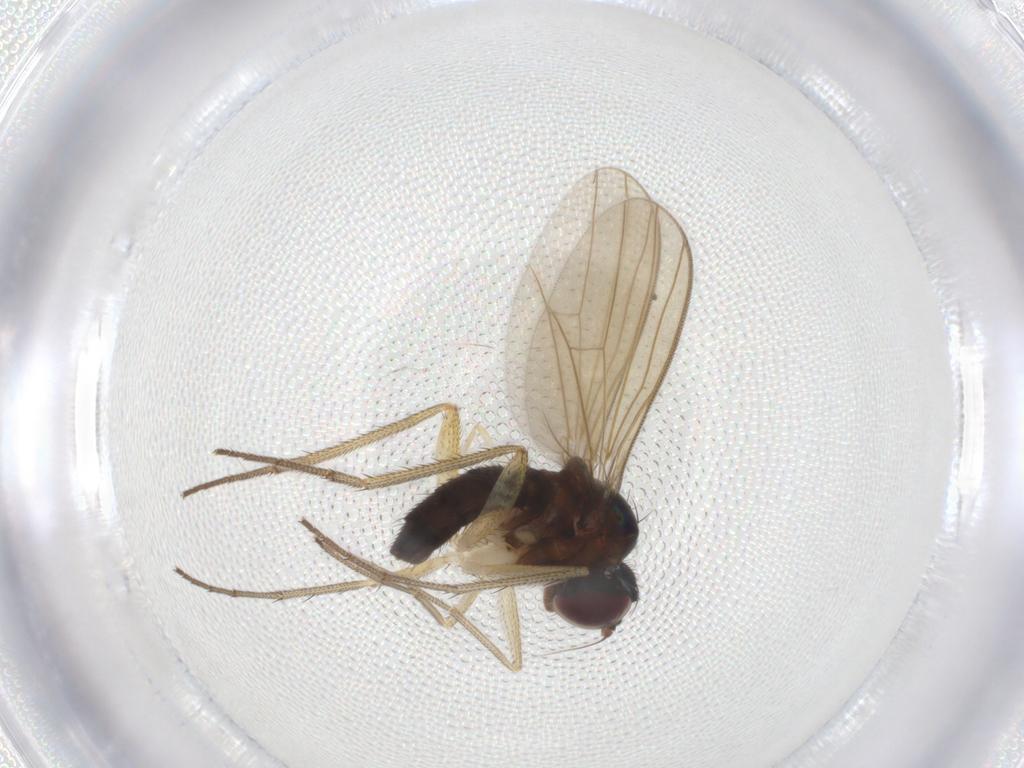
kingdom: Animalia
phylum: Arthropoda
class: Insecta
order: Diptera
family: Dolichopodidae
